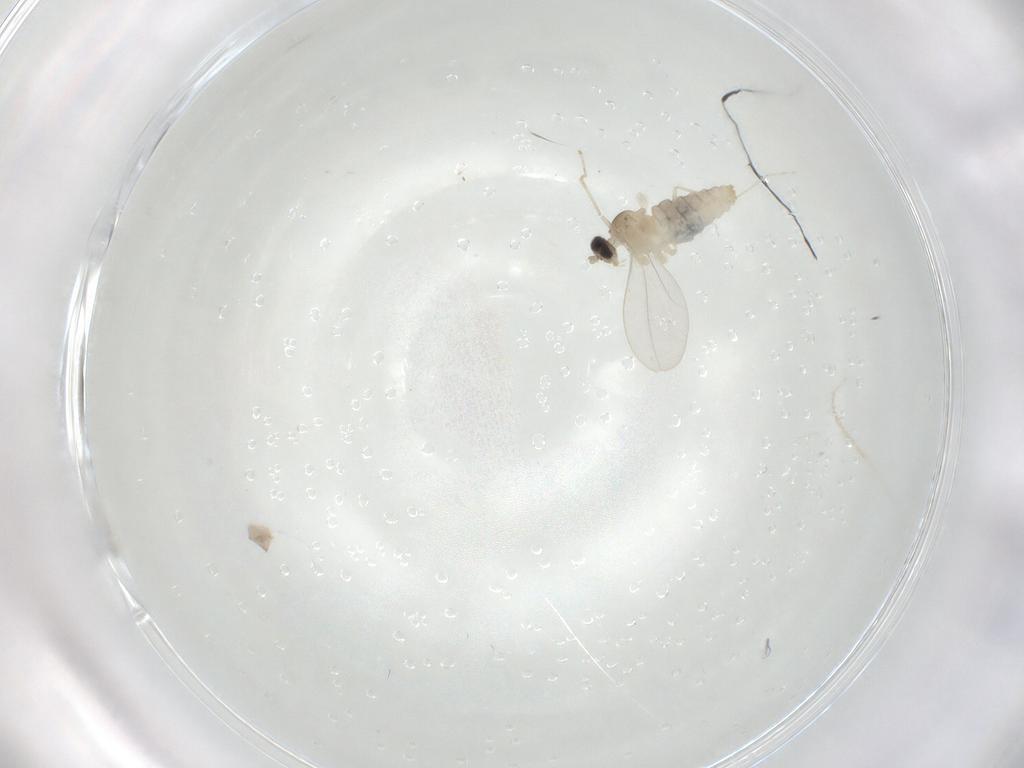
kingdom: Animalia
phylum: Arthropoda
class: Insecta
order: Diptera
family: Cecidomyiidae
